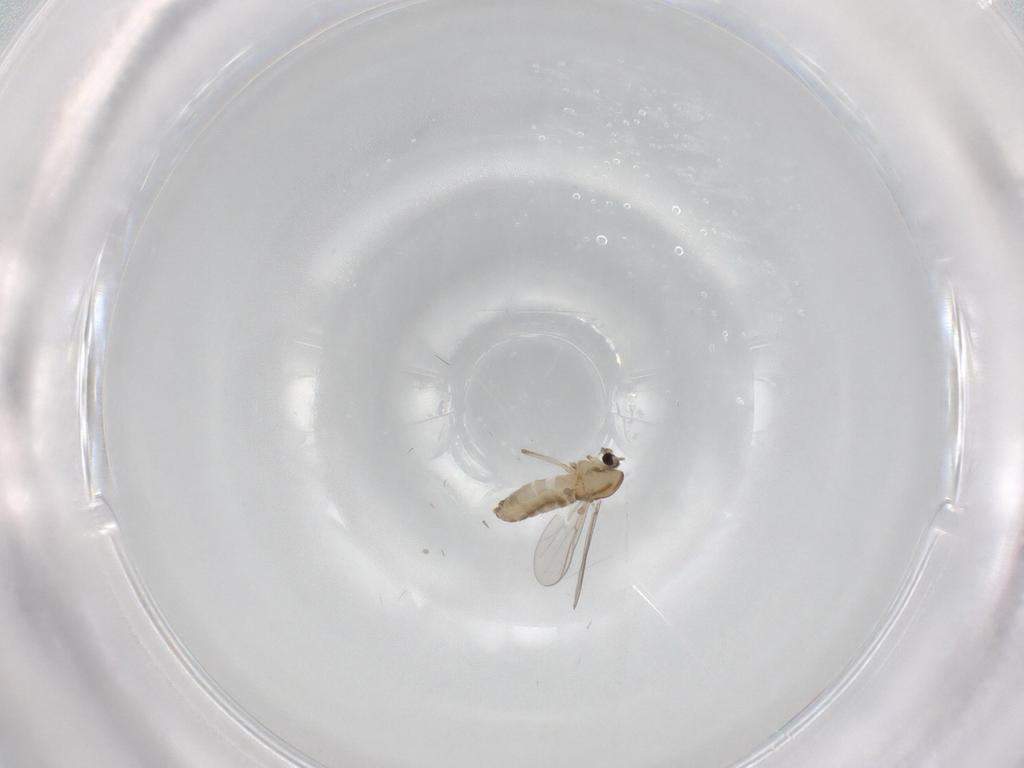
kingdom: Animalia
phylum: Arthropoda
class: Insecta
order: Diptera
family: Chironomidae
